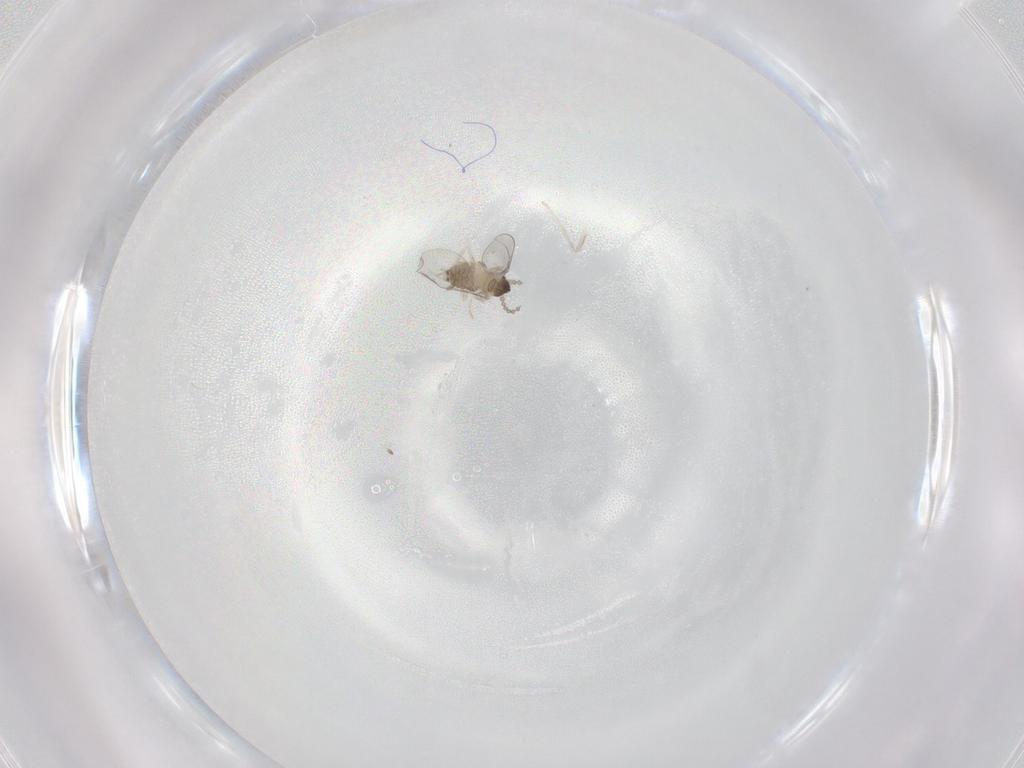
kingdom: Animalia
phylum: Arthropoda
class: Insecta
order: Diptera
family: Cecidomyiidae
